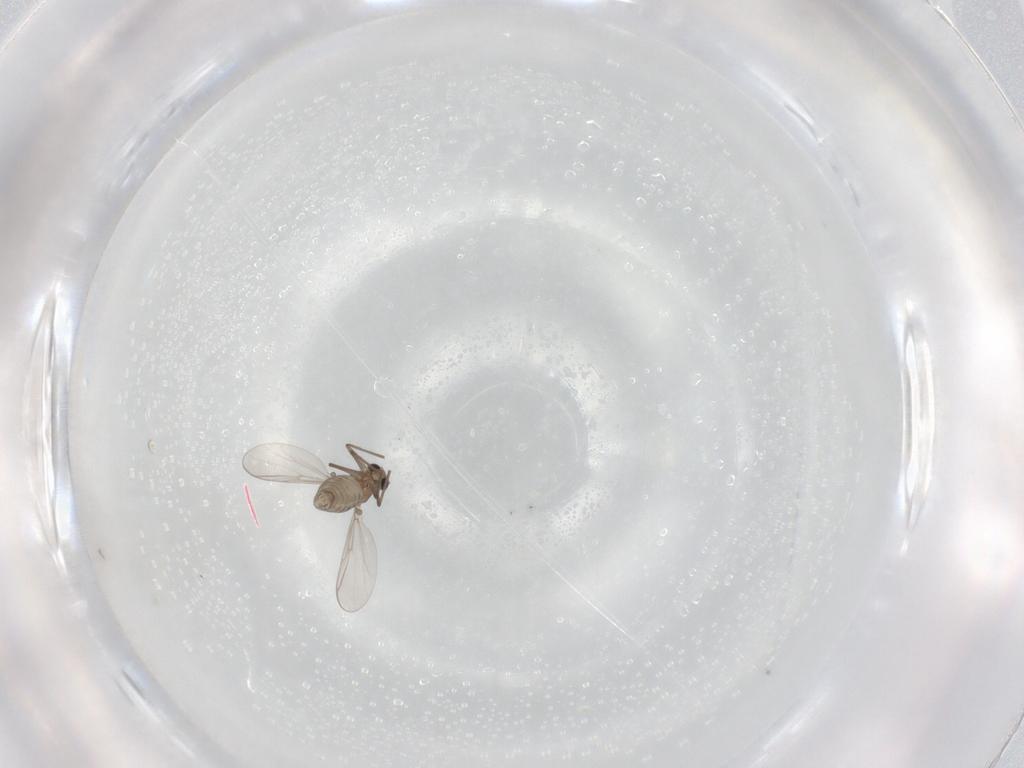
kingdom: Animalia
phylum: Arthropoda
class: Insecta
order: Diptera
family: Chironomidae
